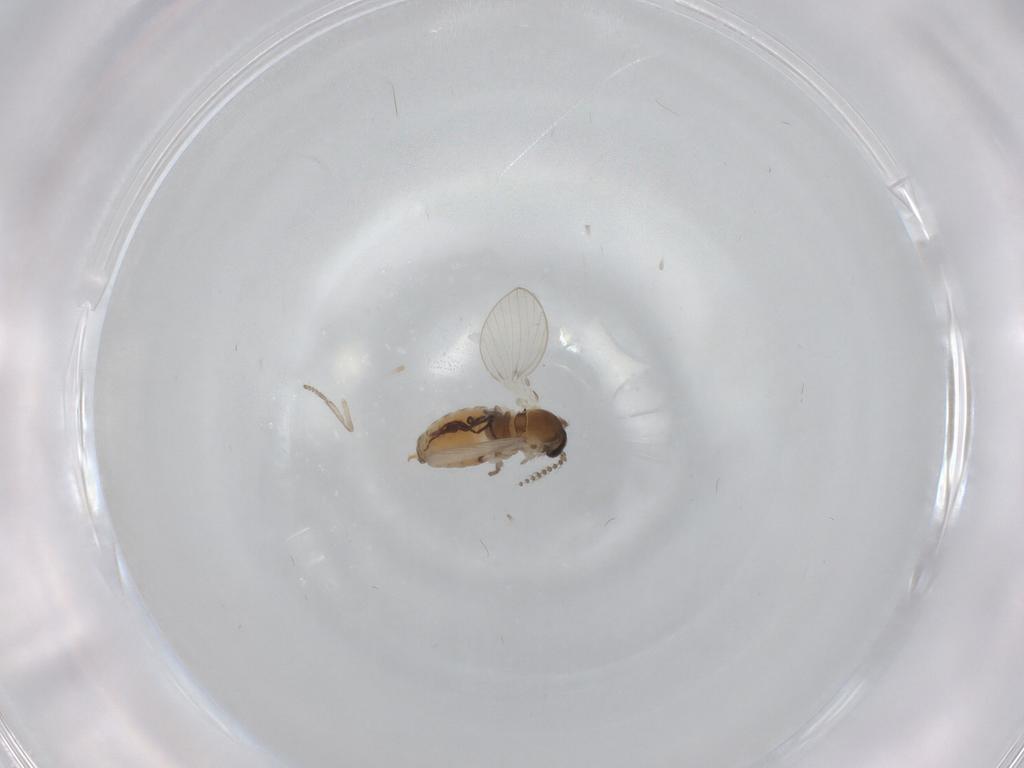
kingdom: Animalia
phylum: Arthropoda
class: Insecta
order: Diptera
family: Psychodidae
